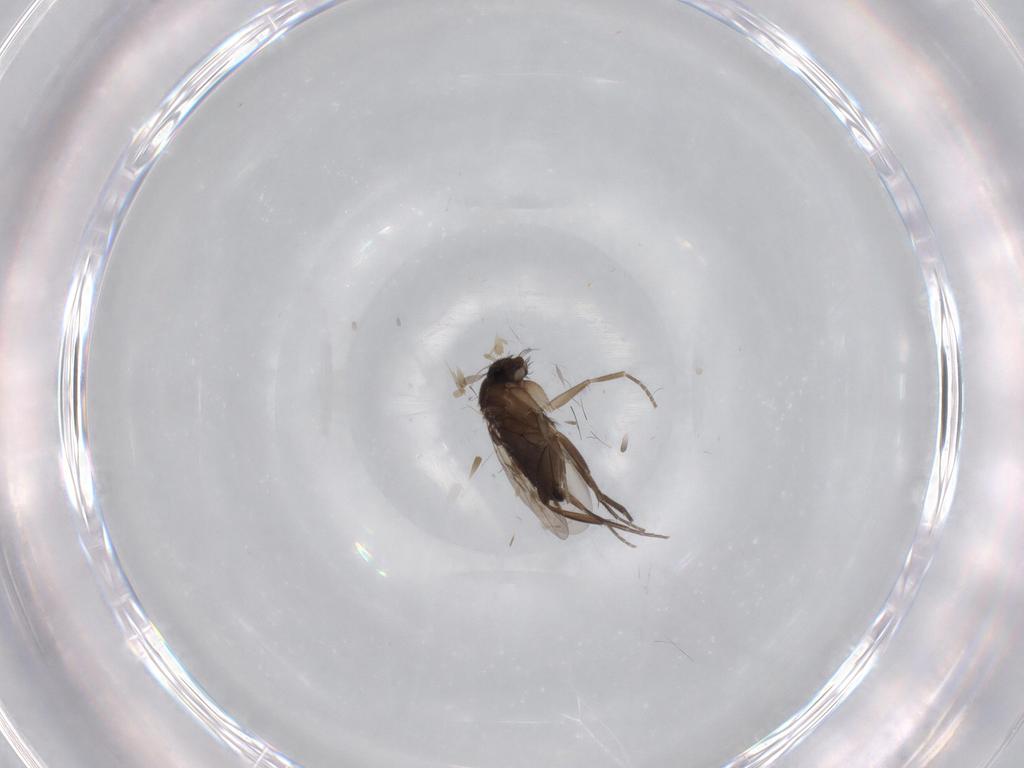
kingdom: Animalia
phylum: Arthropoda
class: Insecta
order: Diptera
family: Phoridae
